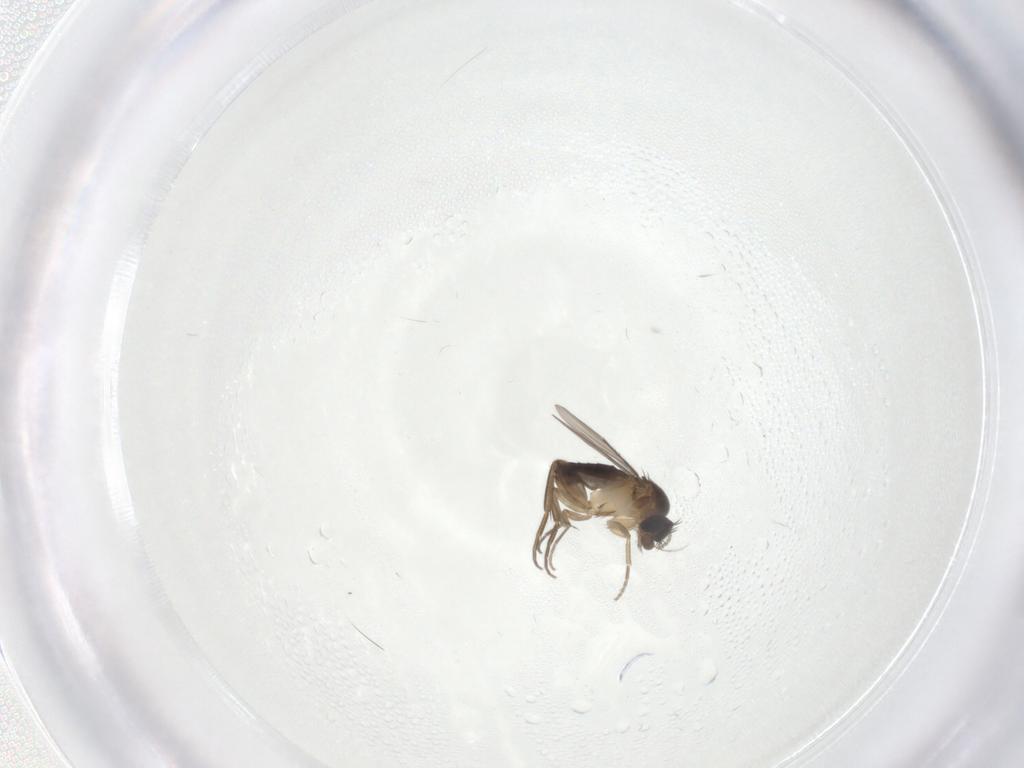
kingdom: Animalia
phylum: Arthropoda
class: Insecta
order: Diptera
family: Phoridae
